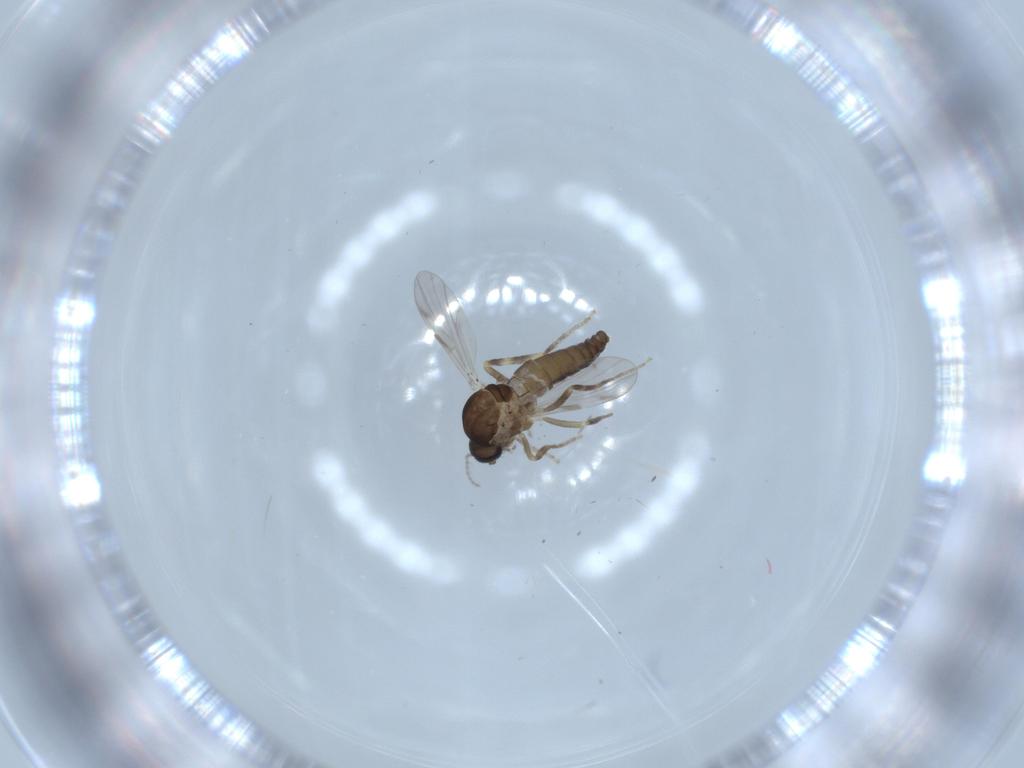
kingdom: Animalia
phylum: Arthropoda
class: Insecta
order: Diptera
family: Ceratopogonidae
